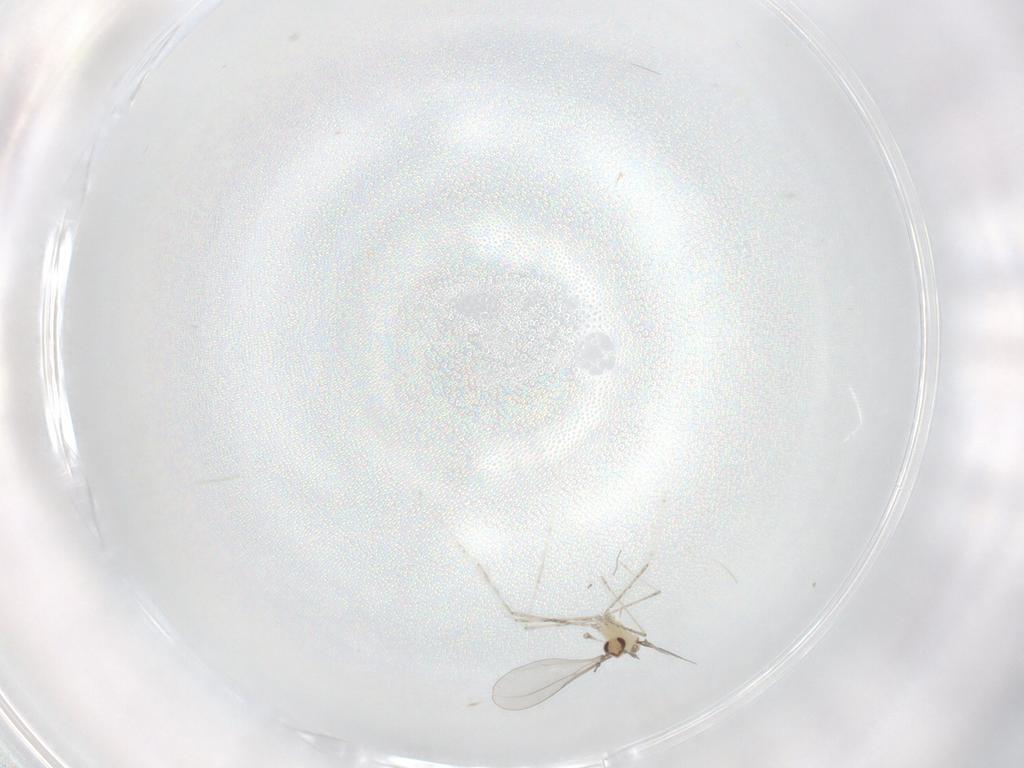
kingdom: Animalia
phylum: Arthropoda
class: Insecta
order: Diptera
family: Cecidomyiidae
